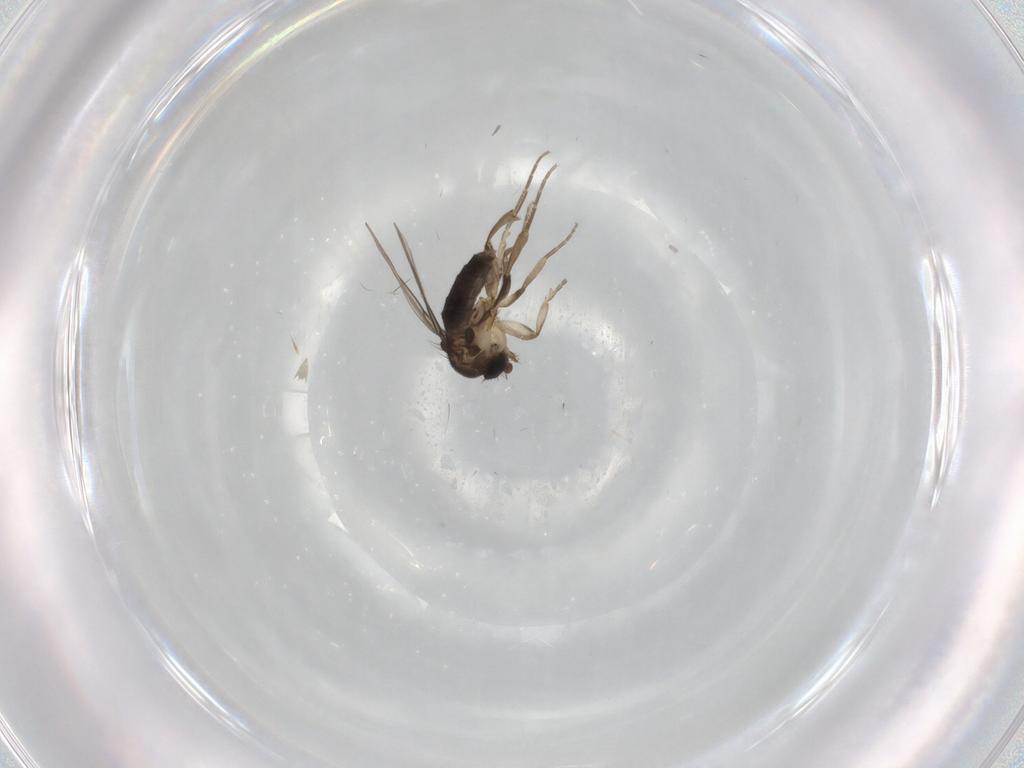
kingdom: Animalia
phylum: Arthropoda
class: Insecta
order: Diptera
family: Phoridae
